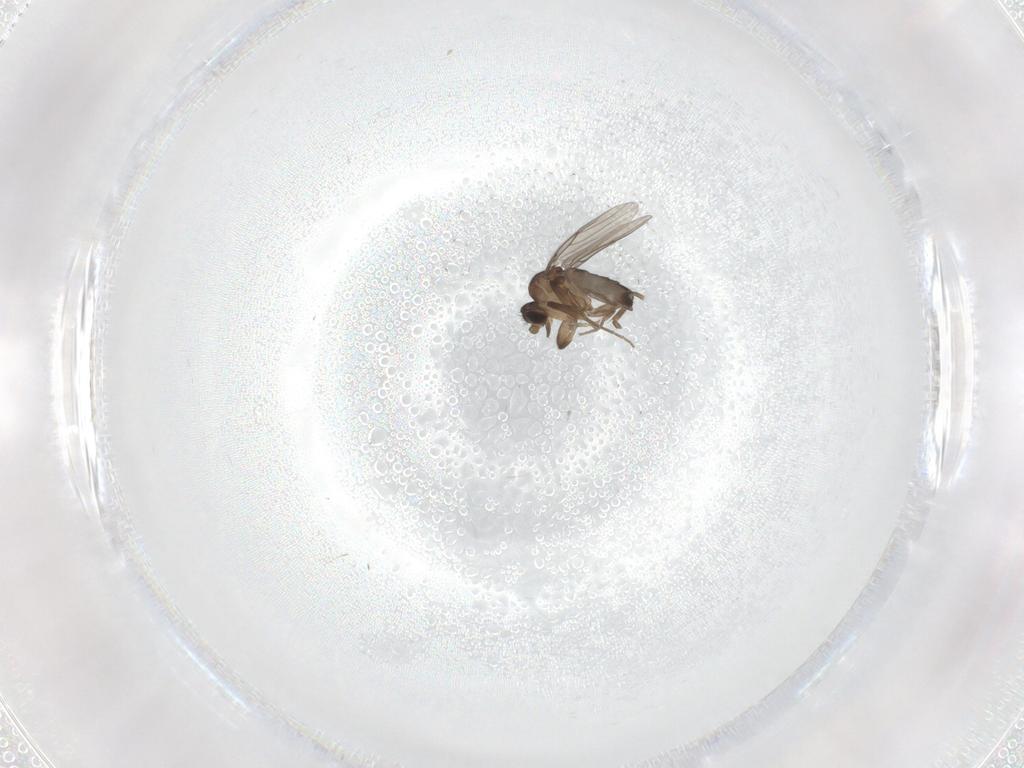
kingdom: Animalia
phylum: Arthropoda
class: Insecta
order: Diptera
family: Milichiidae
